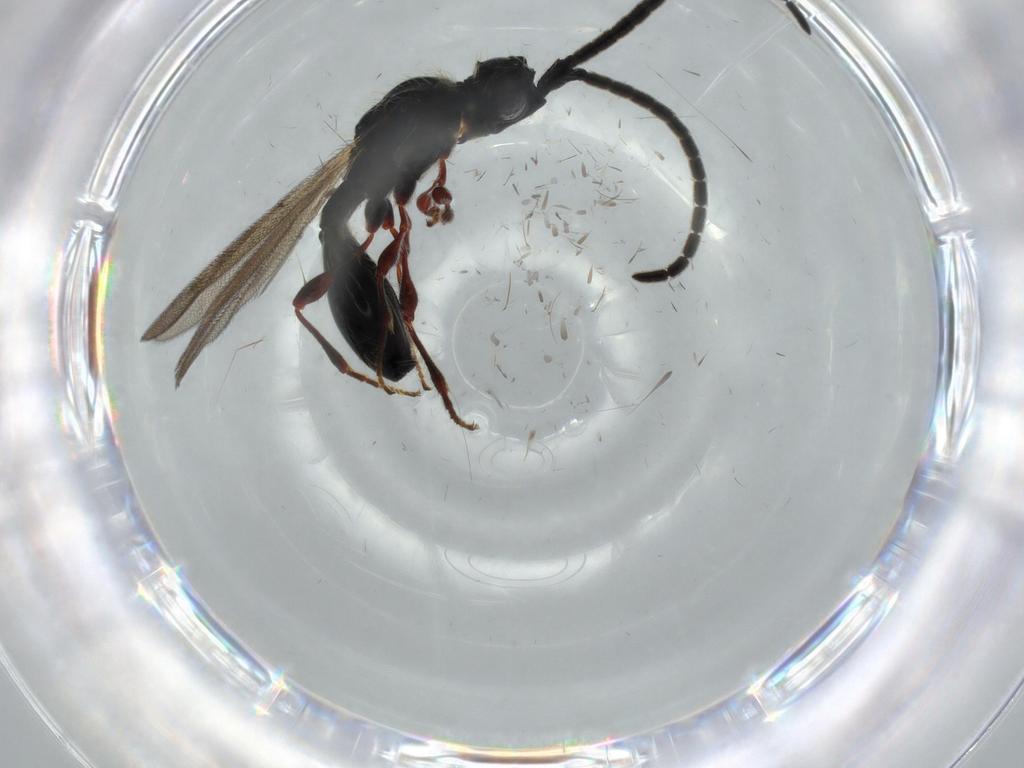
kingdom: Animalia
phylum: Arthropoda
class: Insecta
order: Hymenoptera
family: Diapriidae
